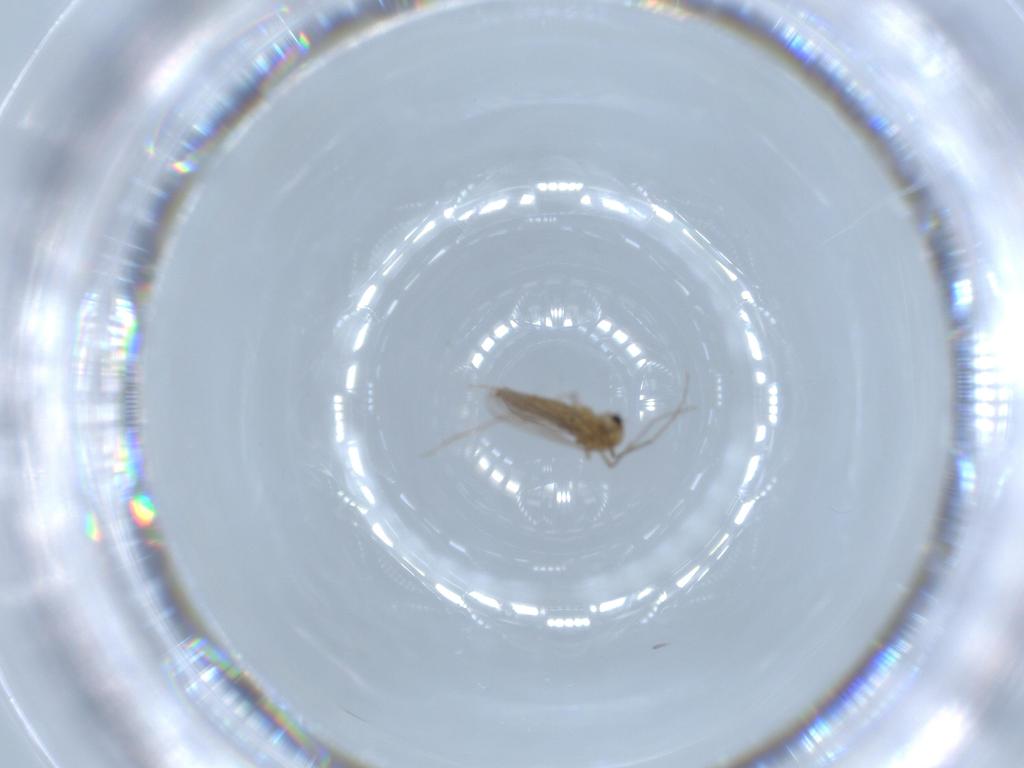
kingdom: Animalia
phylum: Arthropoda
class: Insecta
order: Diptera
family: Chironomidae
